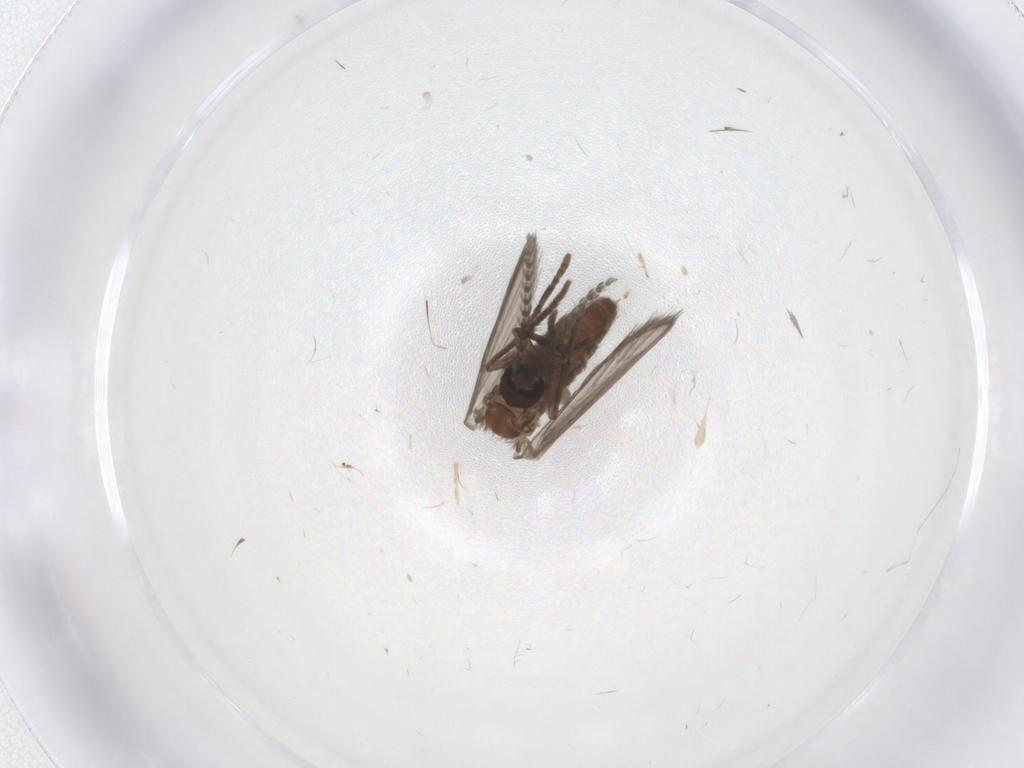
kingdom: Animalia
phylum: Arthropoda
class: Insecta
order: Diptera
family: Psychodidae
